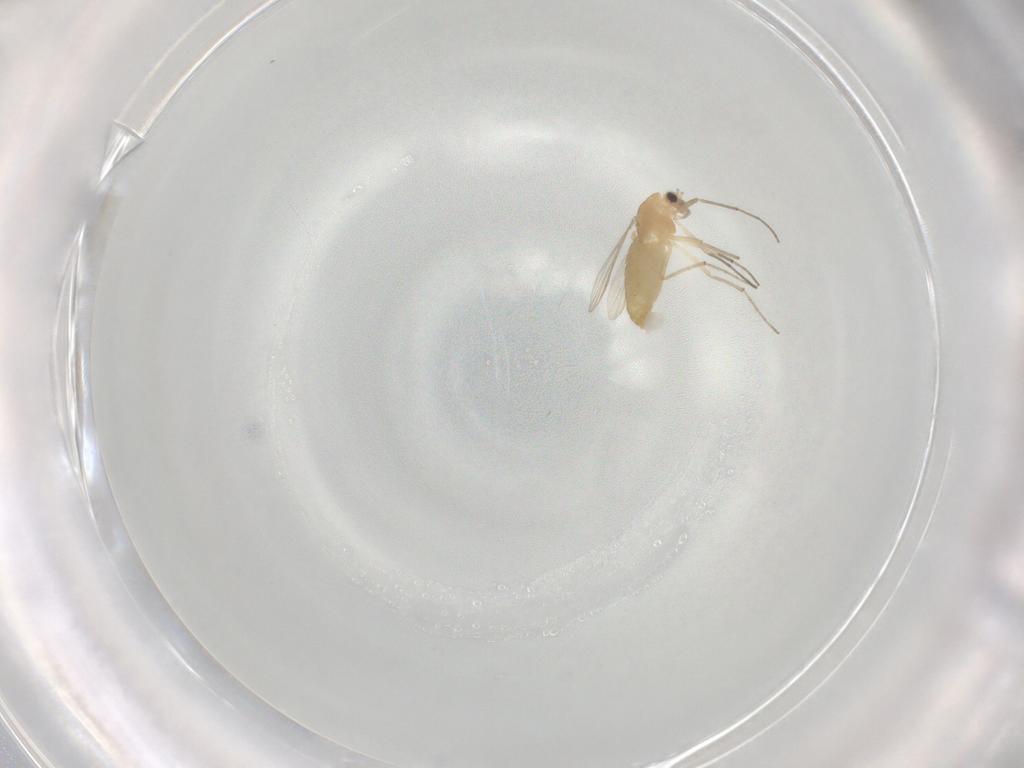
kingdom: Animalia
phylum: Arthropoda
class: Insecta
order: Diptera
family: Chironomidae
